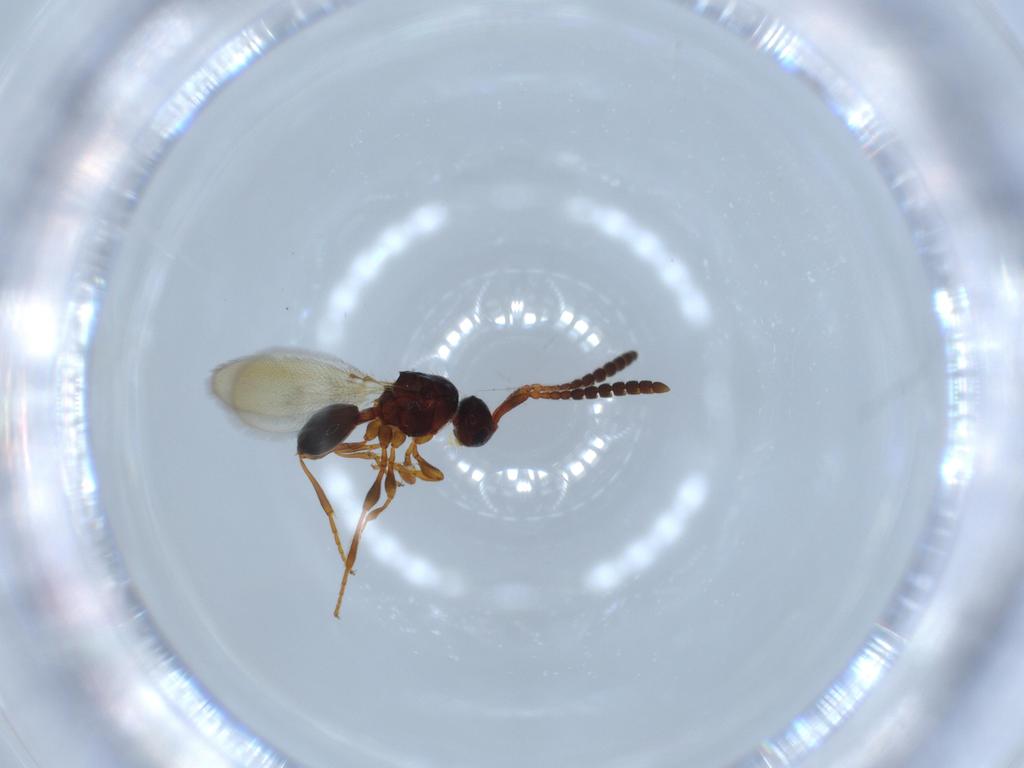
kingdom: Animalia
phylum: Arthropoda
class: Insecta
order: Hymenoptera
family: Diapriidae
